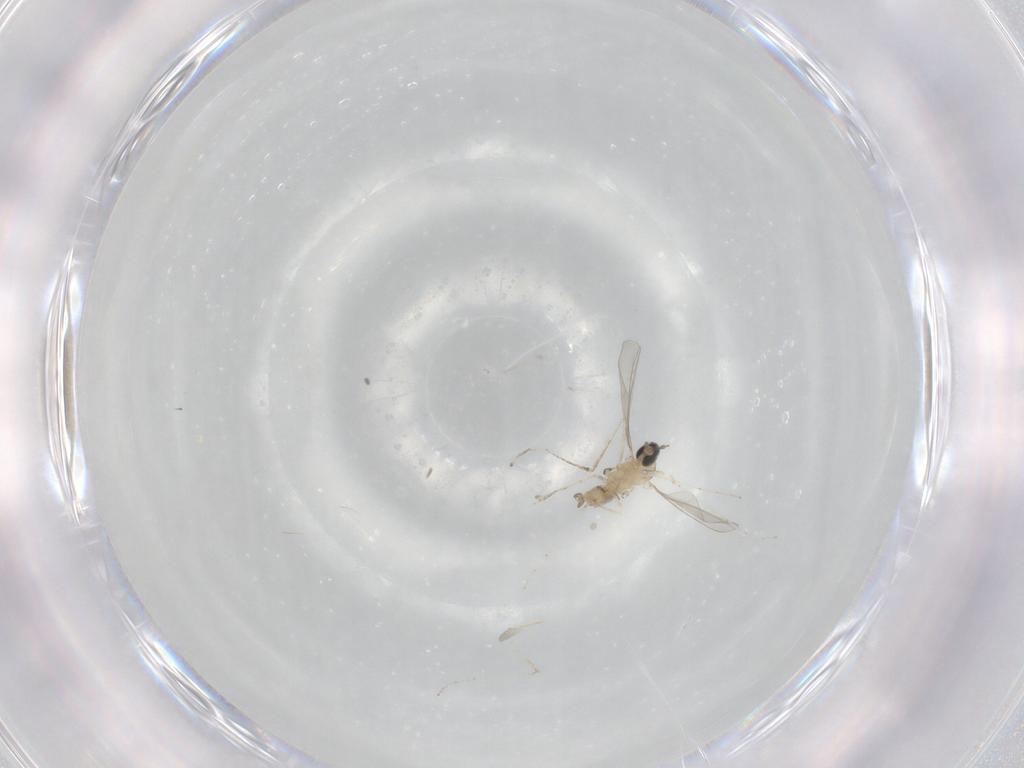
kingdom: Animalia
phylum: Arthropoda
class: Insecta
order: Diptera
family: Cecidomyiidae
